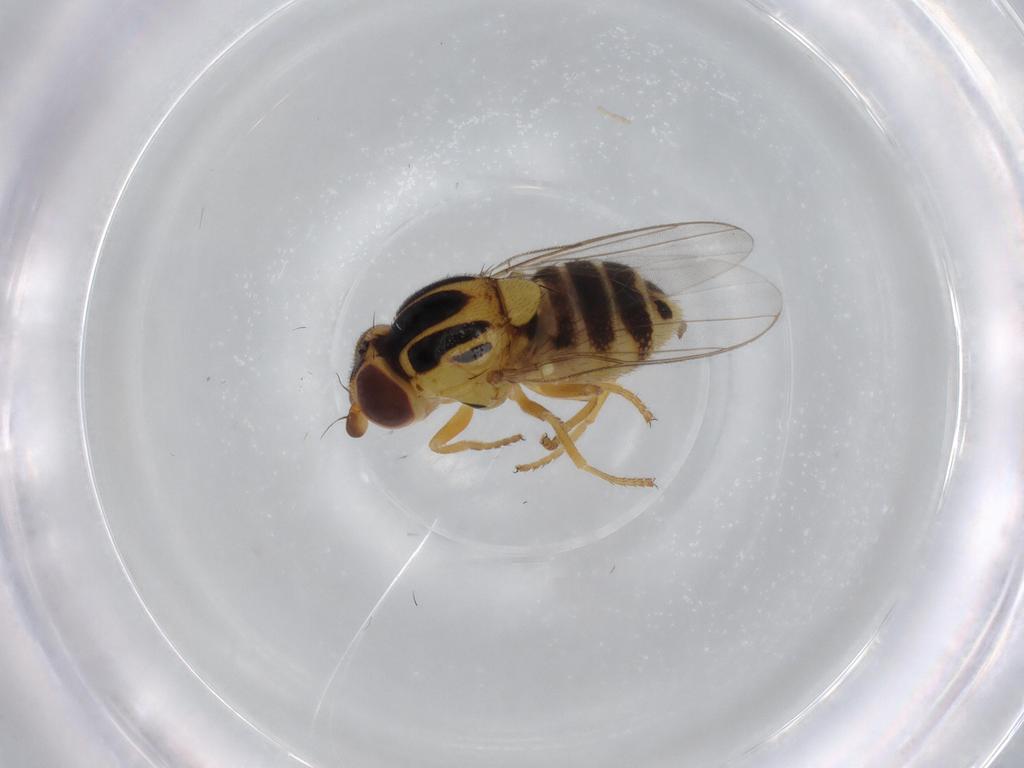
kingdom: Animalia
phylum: Arthropoda
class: Insecta
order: Diptera
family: Chloropidae
